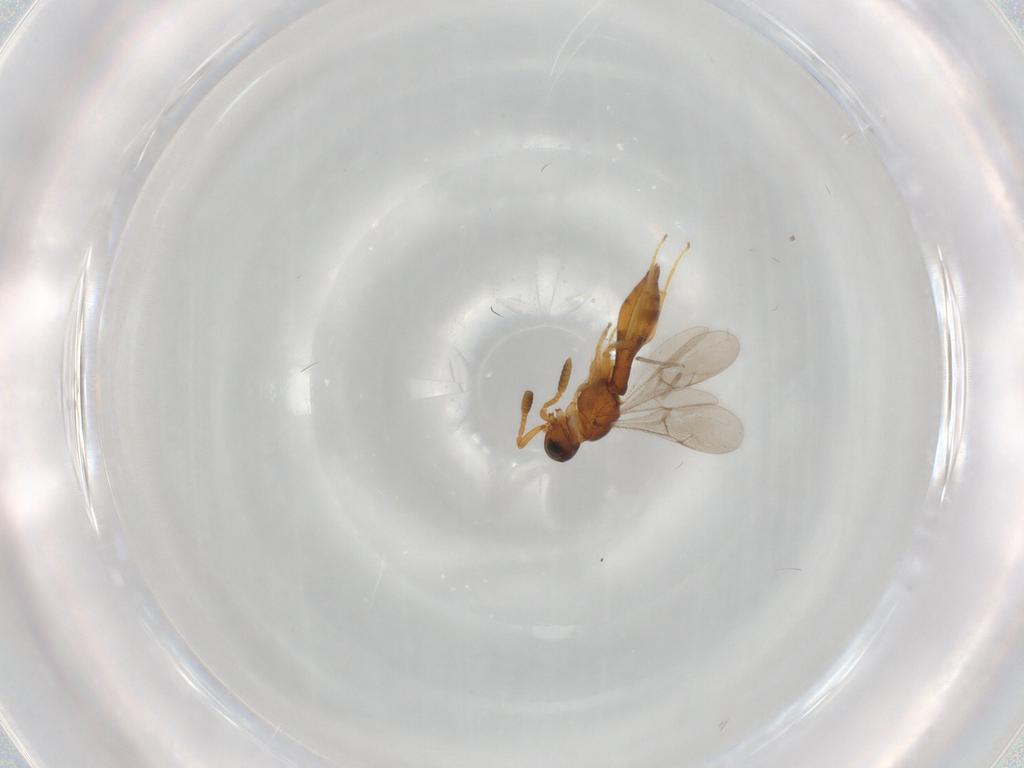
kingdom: Animalia
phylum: Arthropoda
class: Insecta
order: Hymenoptera
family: Scelionidae
